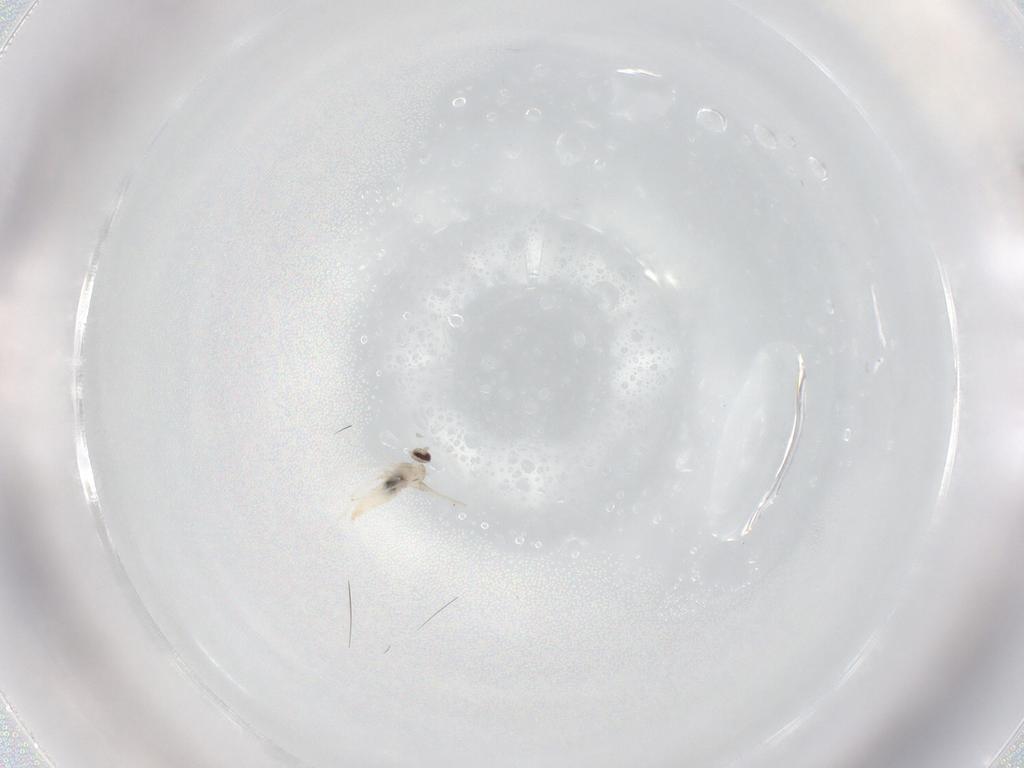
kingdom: Animalia
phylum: Arthropoda
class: Insecta
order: Diptera
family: Cecidomyiidae
